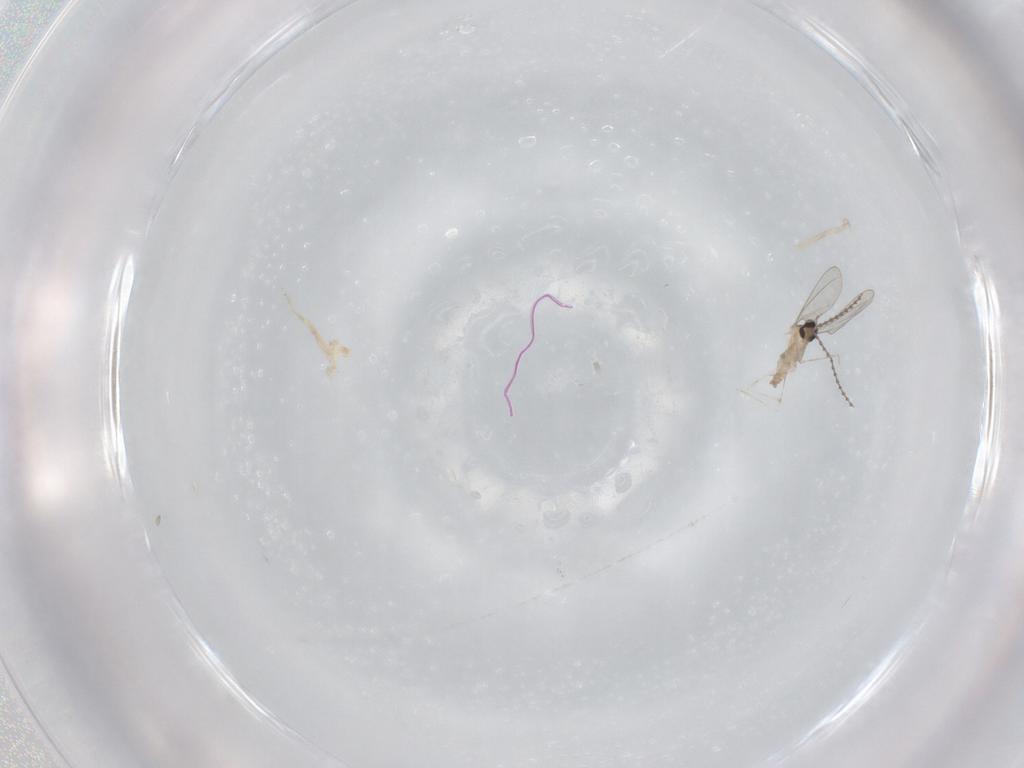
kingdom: Animalia
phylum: Arthropoda
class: Insecta
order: Diptera
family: Cecidomyiidae
